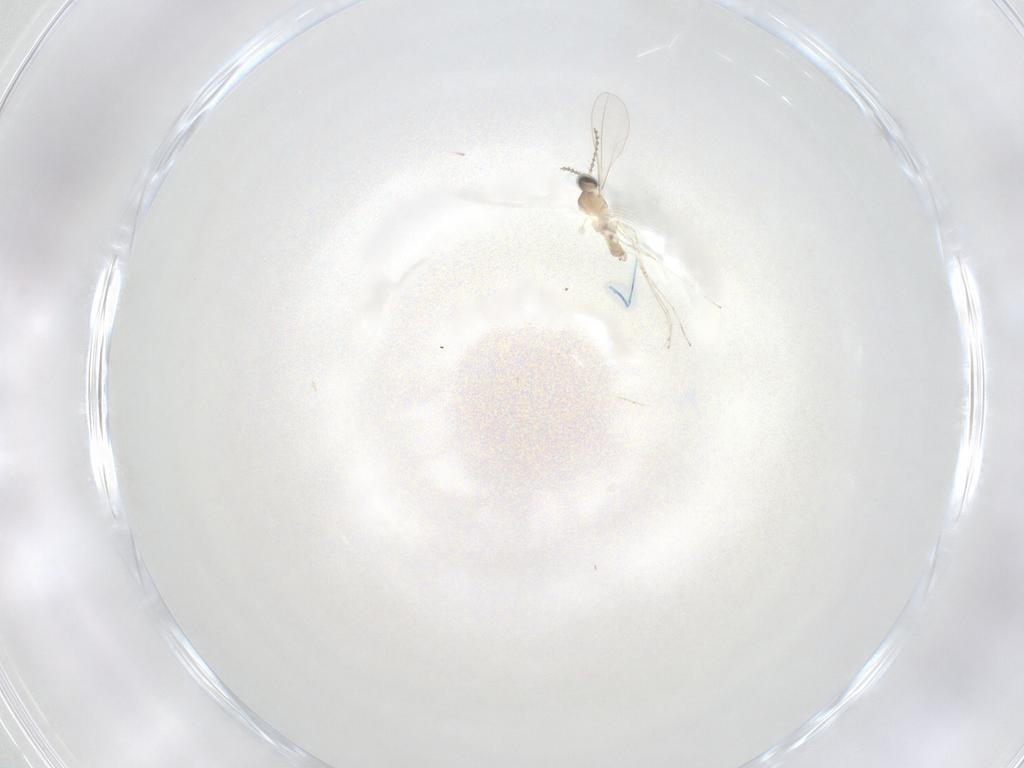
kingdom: Animalia
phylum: Arthropoda
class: Insecta
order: Diptera
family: Cecidomyiidae
